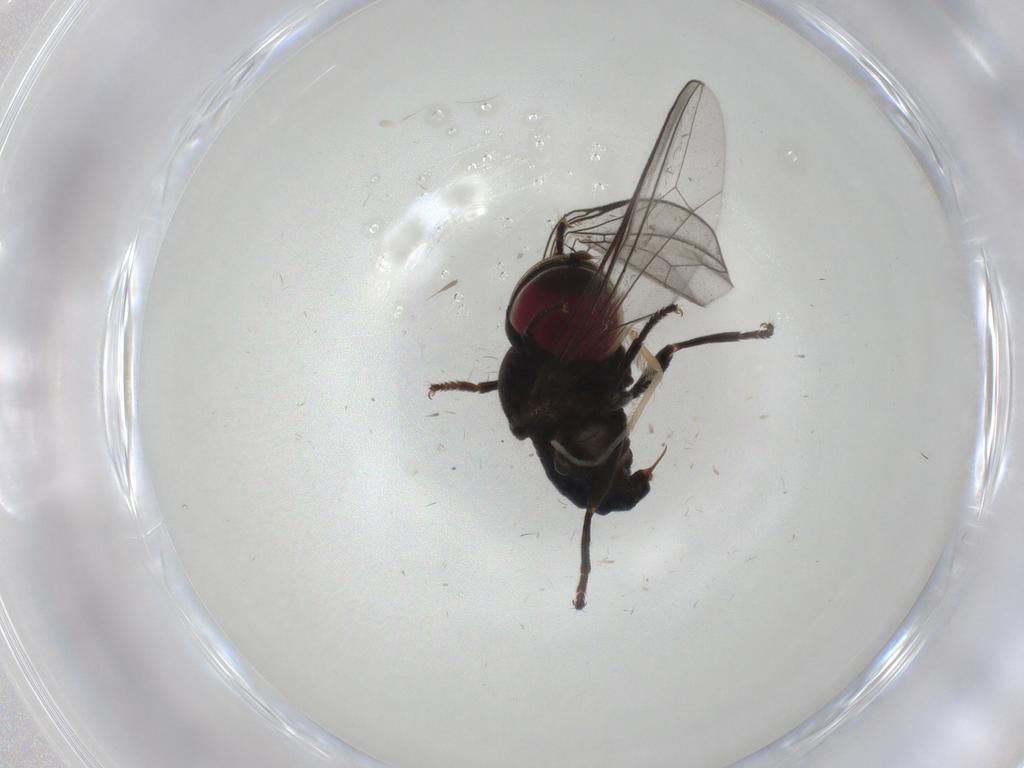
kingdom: Animalia
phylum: Arthropoda
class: Insecta
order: Diptera
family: Pipunculidae
